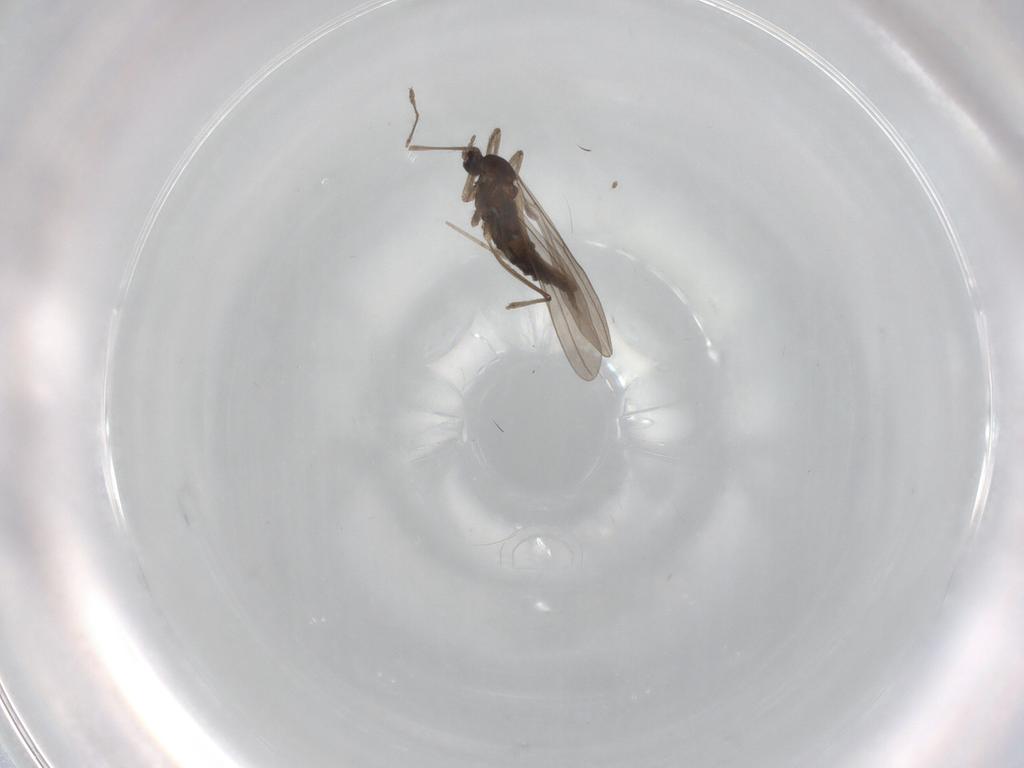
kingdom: Animalia
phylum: Arthropoda
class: Insecta
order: Diptera
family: Cecidomyiidae
